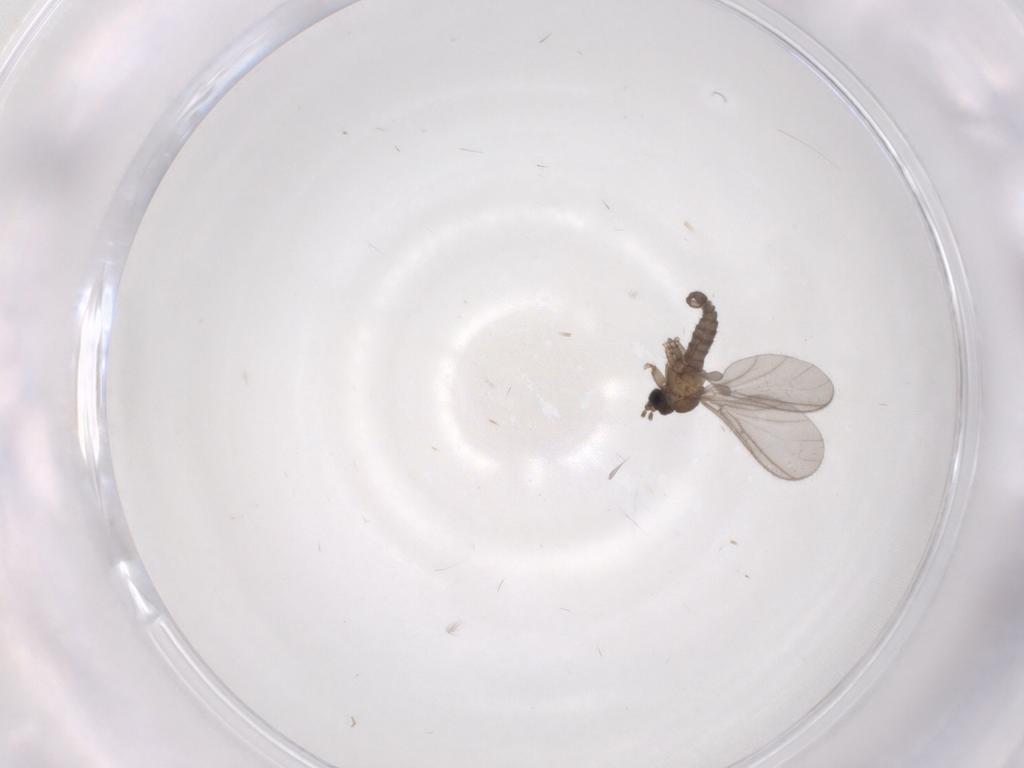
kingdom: Animalia
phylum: Arthropoda
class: Insecta
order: Diptera
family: Sciaridae
